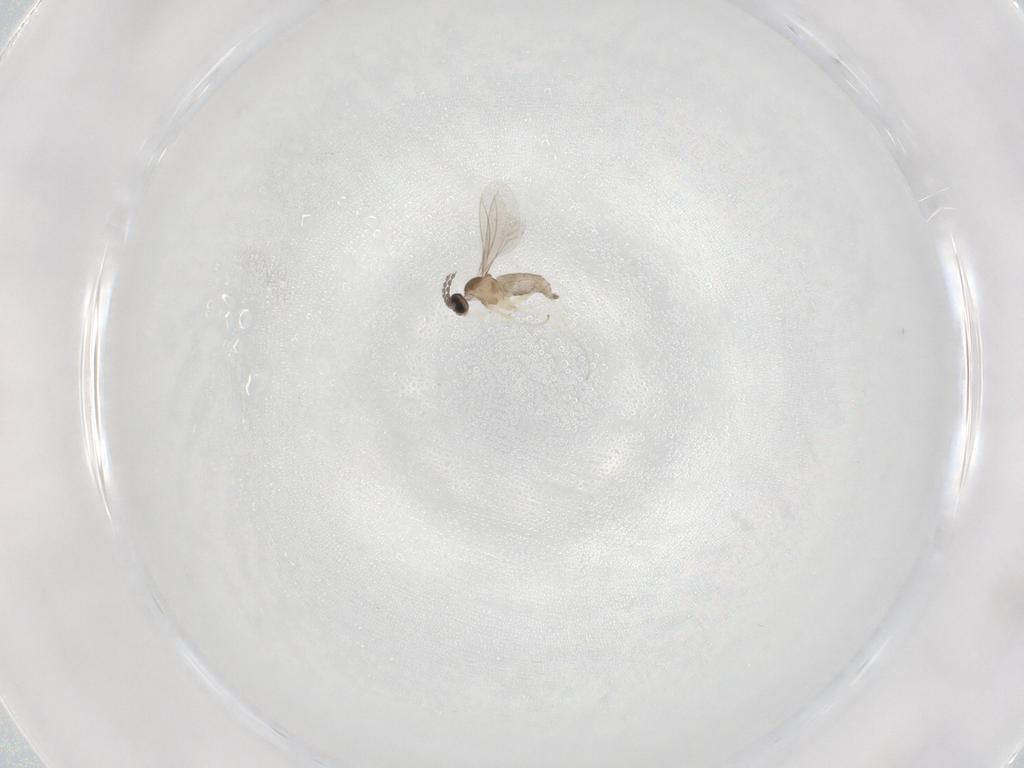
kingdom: Animalia
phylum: Arthropoda
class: Insecta
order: Diptera
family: Cecidomyiidae
